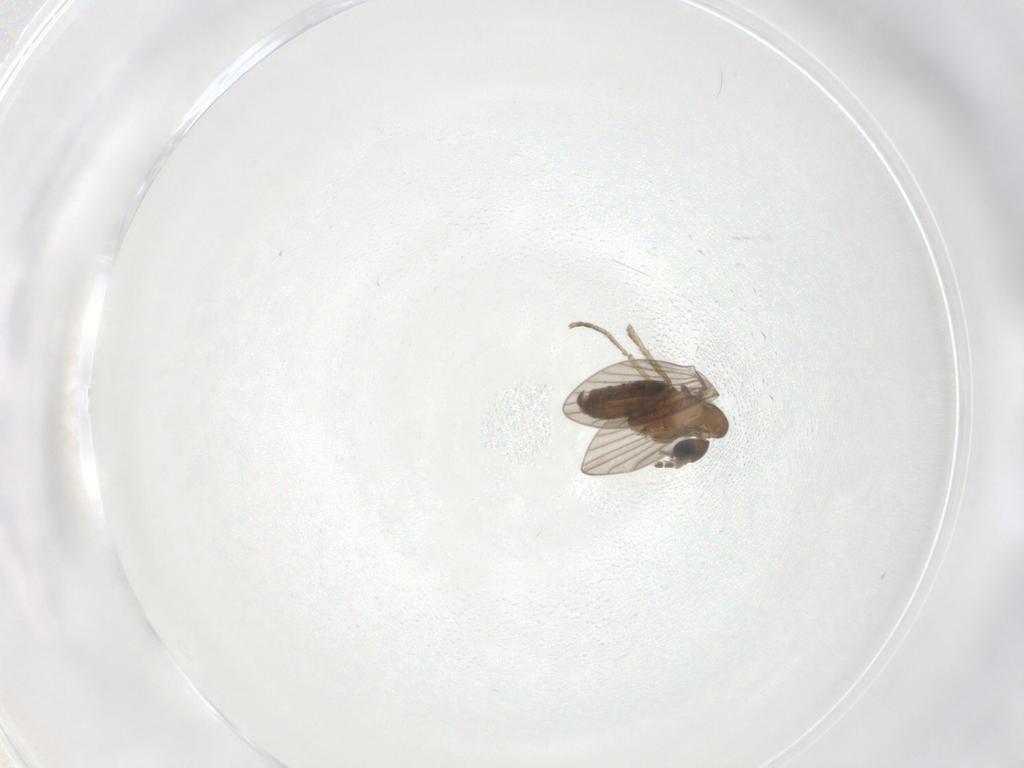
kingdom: Animalia
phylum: Arthropoda
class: Insecta
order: Diptera
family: Psychodidae
